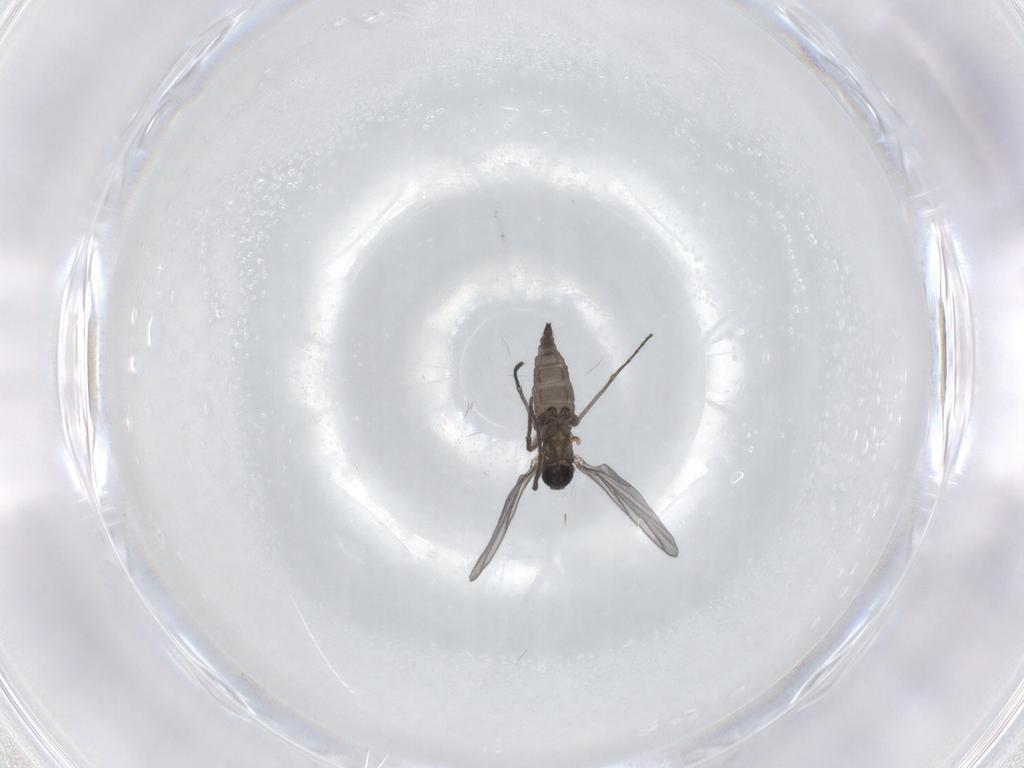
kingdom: Animalia
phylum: Arthropoda
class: Insecta
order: Diptera
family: Sciaridae
